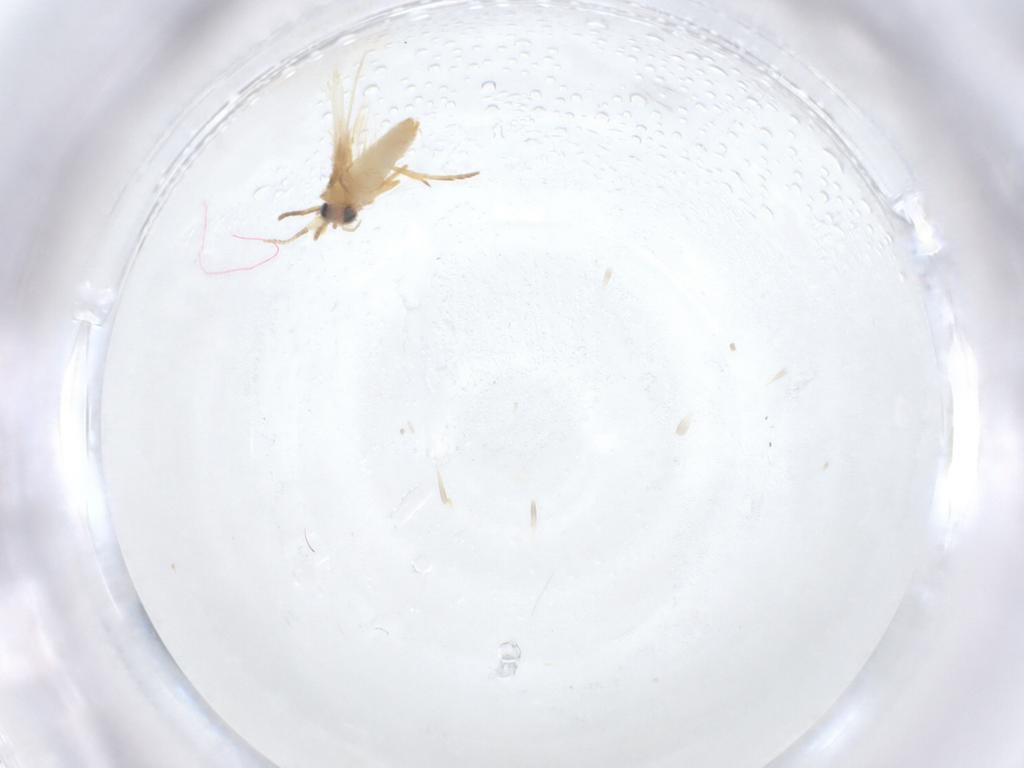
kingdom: Animalia
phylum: Arthropoda
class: Insecta
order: Lepidoptera
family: Nepticulidae
